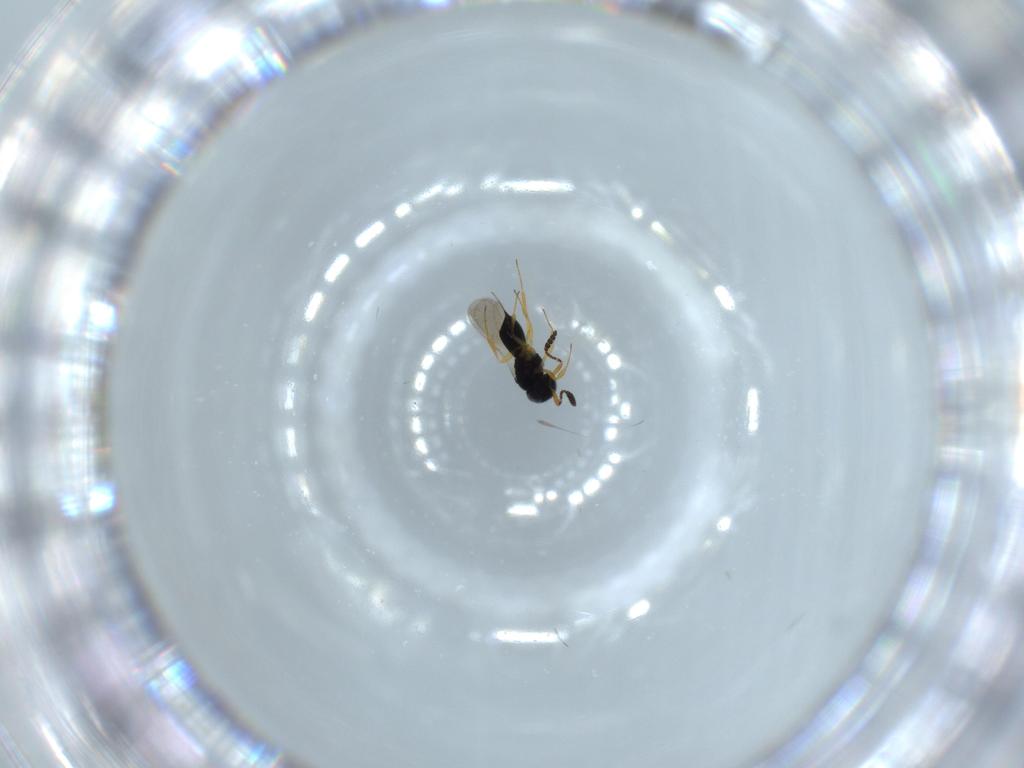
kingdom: Animalia
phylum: Arthropoda
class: Insecta
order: Hymenoptera
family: Scelionidae
